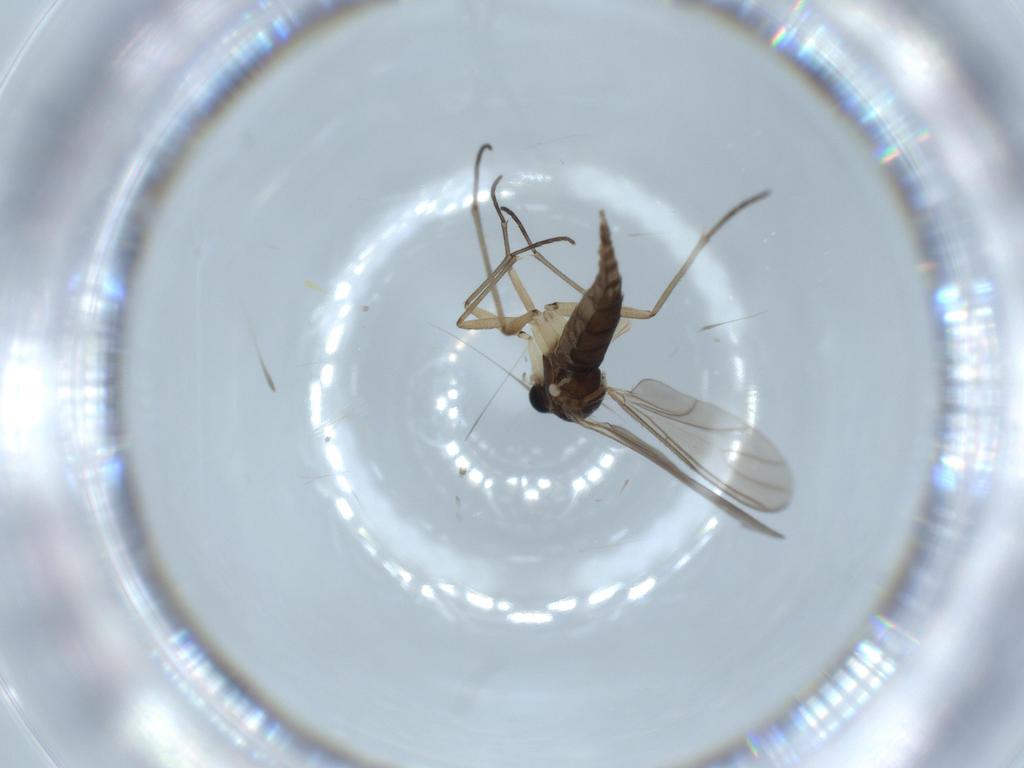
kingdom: Animalia
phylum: Arthropoda
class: Insecta
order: Diptera
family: Sciaridae
